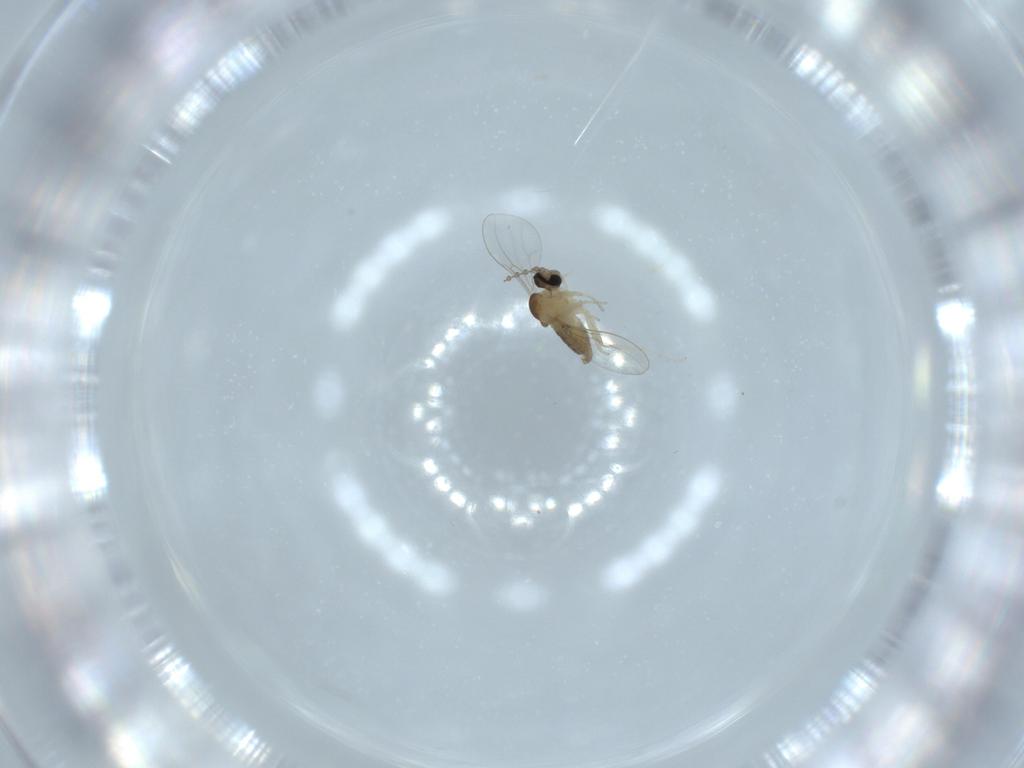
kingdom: Animalia
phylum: Arthropoda
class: Insecta
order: Diptera
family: Cecidomyiidae
